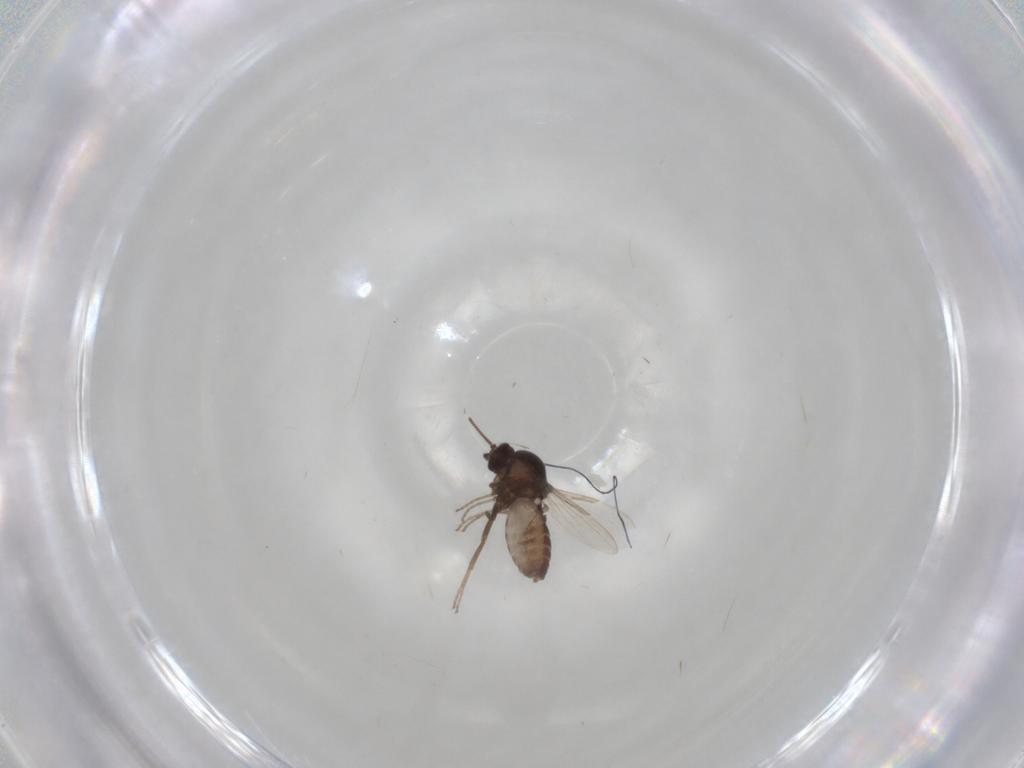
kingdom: Animalia
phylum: Arthropoda
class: Insecta
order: Diptera
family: Ceratopogonidae
